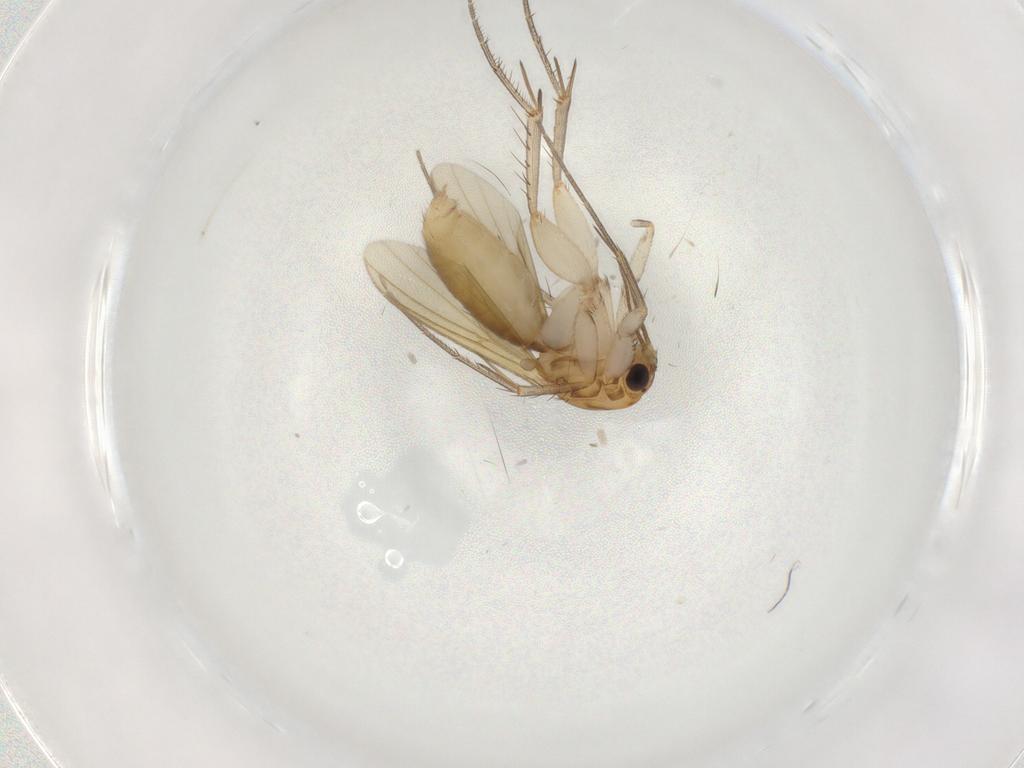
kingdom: Animalia
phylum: Arthropoda
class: Insecta
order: Diptera
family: Mycetophilidae
